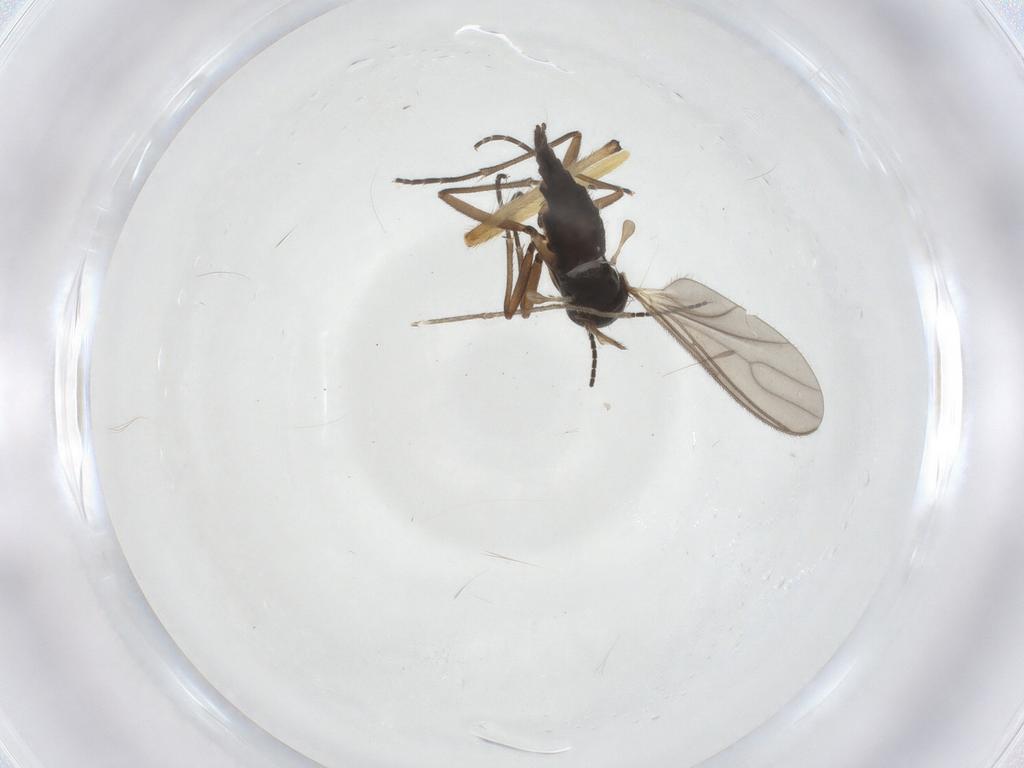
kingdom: Animalia
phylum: Arthropoda
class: Insecta
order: Diptera
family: Sciaridae
